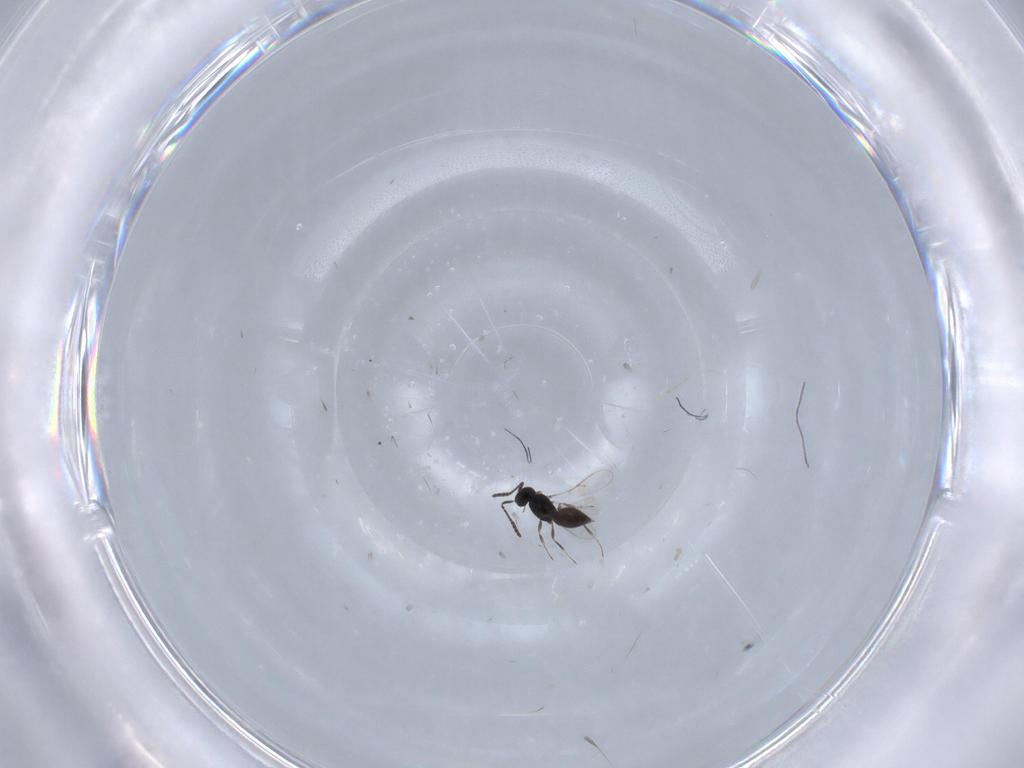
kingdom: Animalia
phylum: Arthropoda
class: Insecta
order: Hymenoptera
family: Scelionidae
